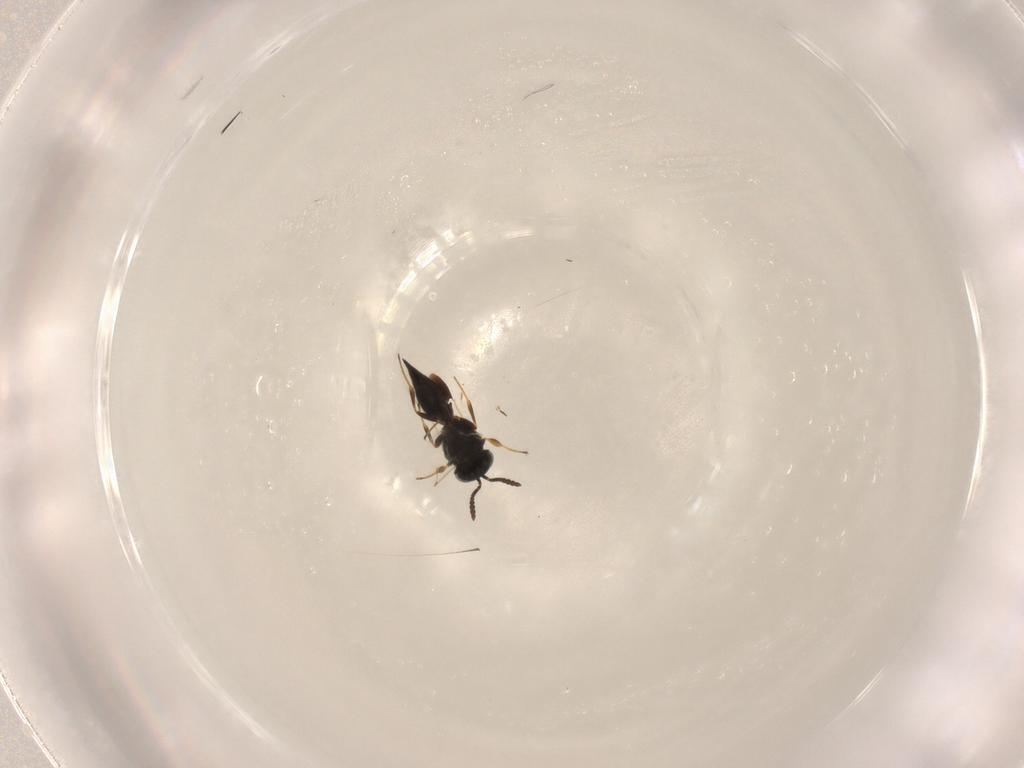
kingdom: Animalia
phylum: Arthropoda
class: Insecta
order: Hymenoptera
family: Scelionidae
